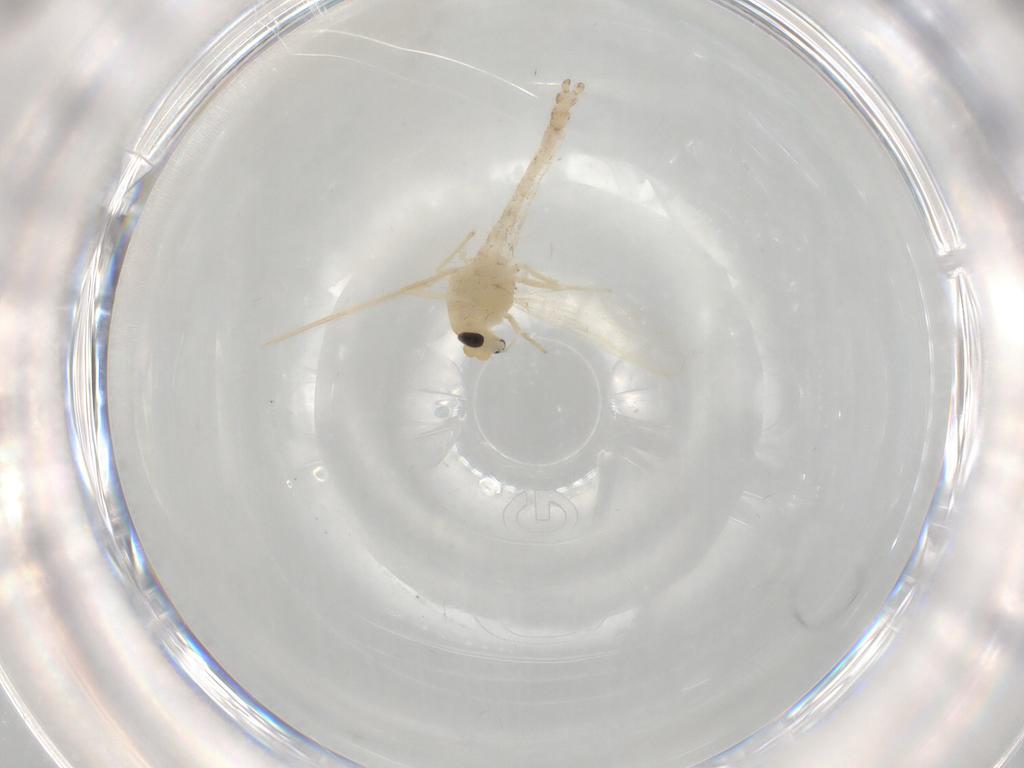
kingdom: Animalia
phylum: Arthropoda
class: Insecta
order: Diptera
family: Chironomidae
